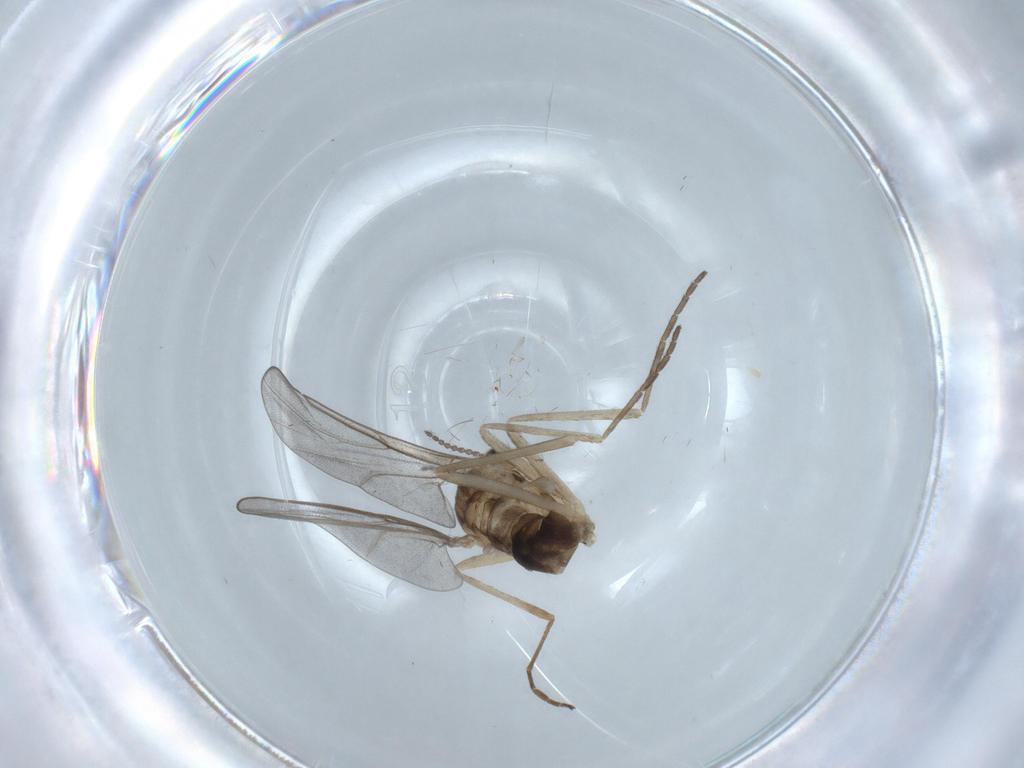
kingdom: Animalia
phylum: Arthropoda
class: Insecta
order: Diptera
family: Cecidomyiidae
